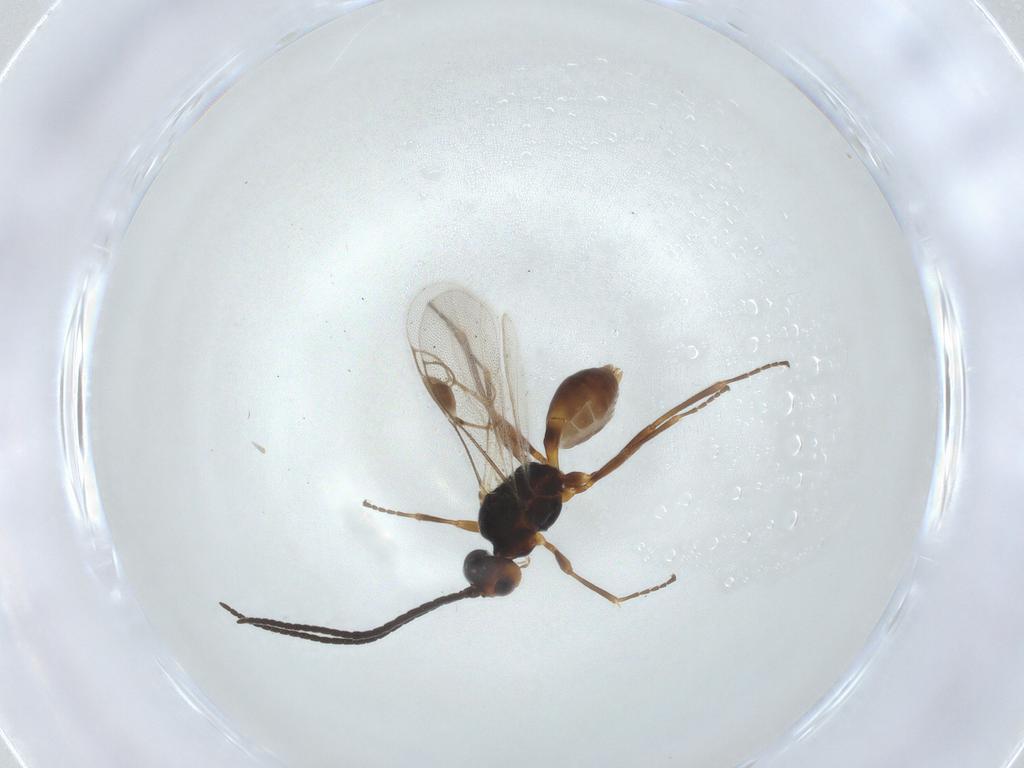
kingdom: Animalia
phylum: Arthropoda
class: Insecta
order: Hymenoptera
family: Braconidae
